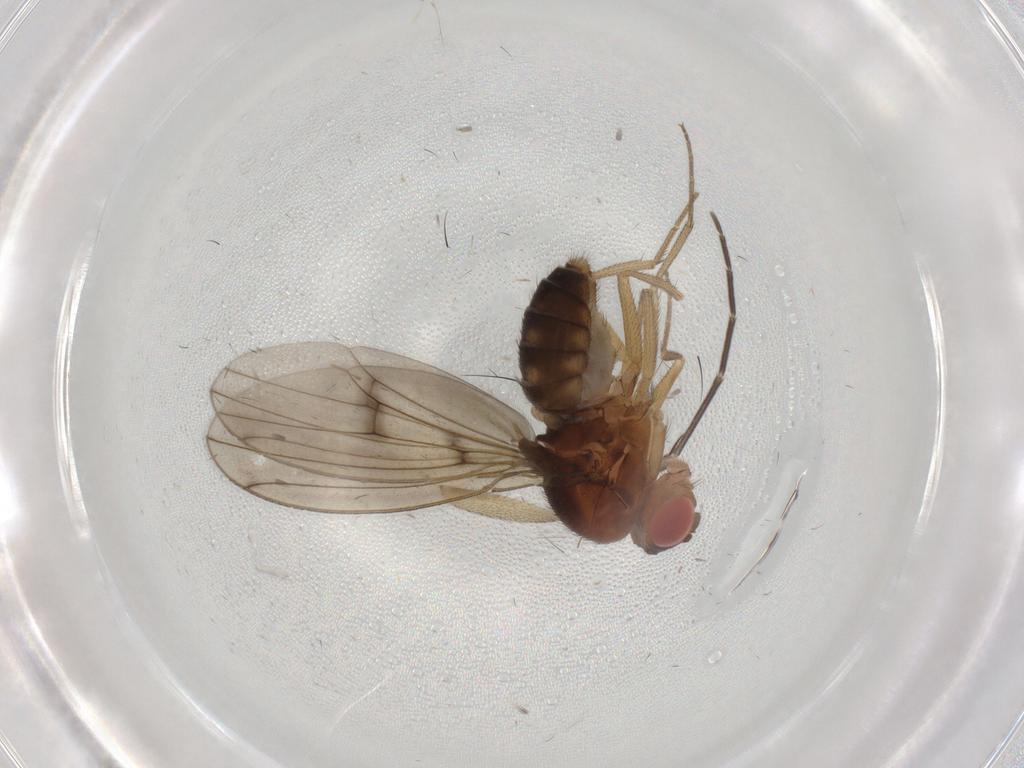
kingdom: Animalia
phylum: Arthropoda
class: Insecta
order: Diptera
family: Drosophilidae
